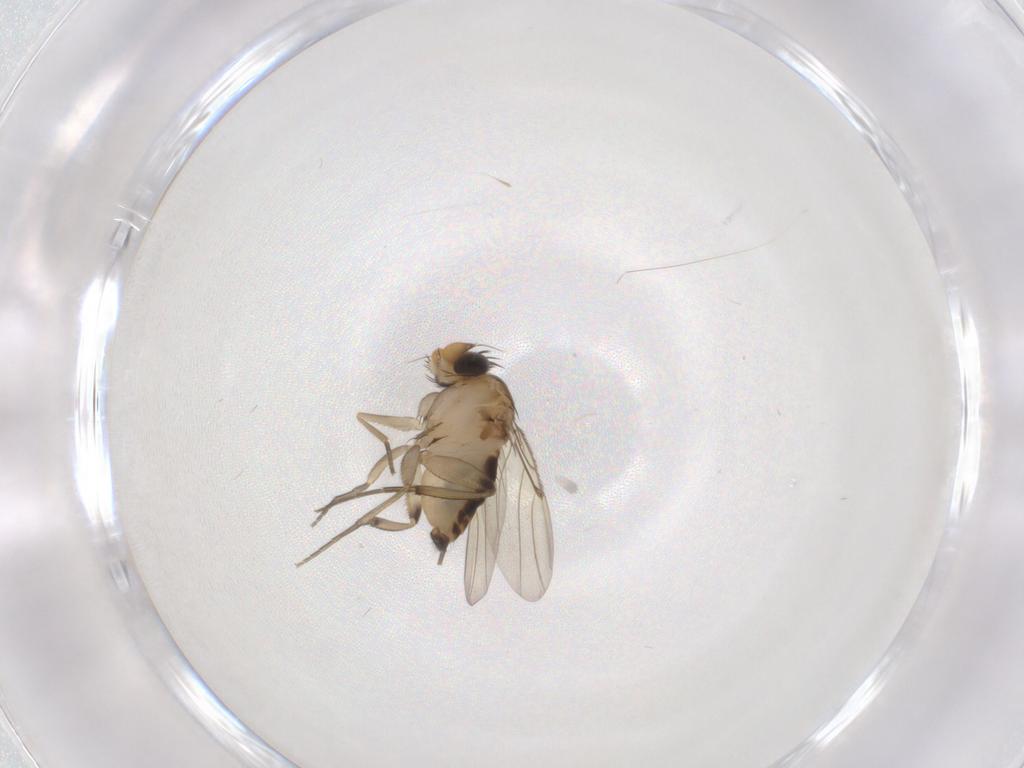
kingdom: Animalia
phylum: Arthropoda
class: Insecta
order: Diptera
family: Phoridae
